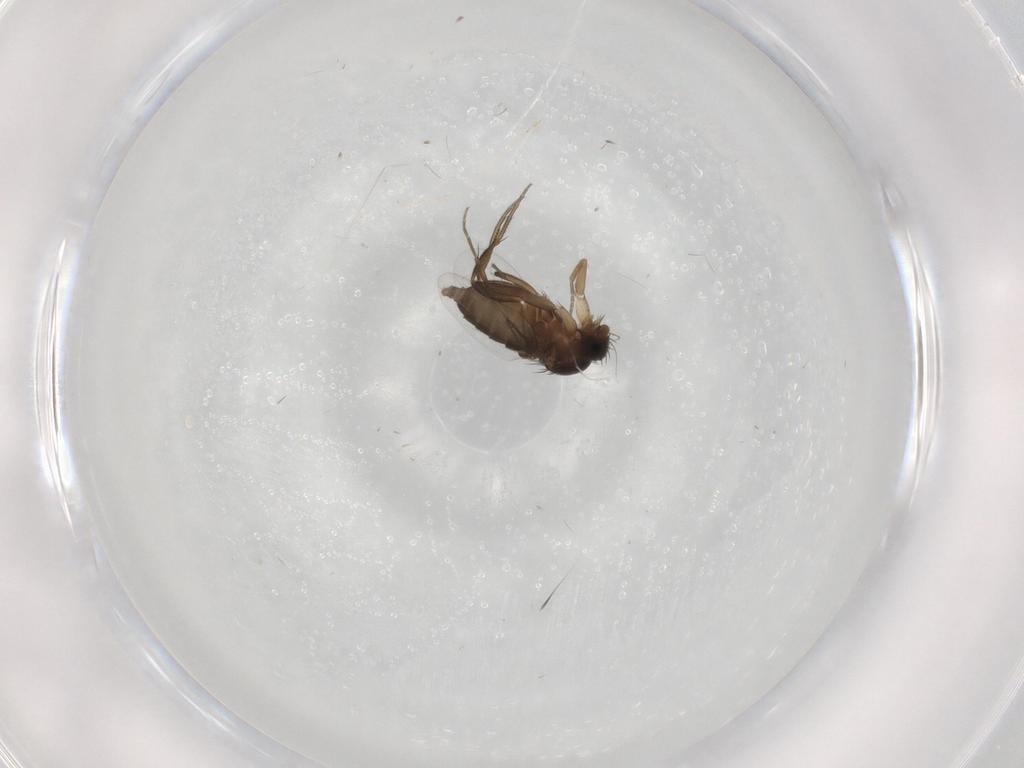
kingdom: Animalia
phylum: Arthropoda
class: Insecta
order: Diptera
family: Phoridae
